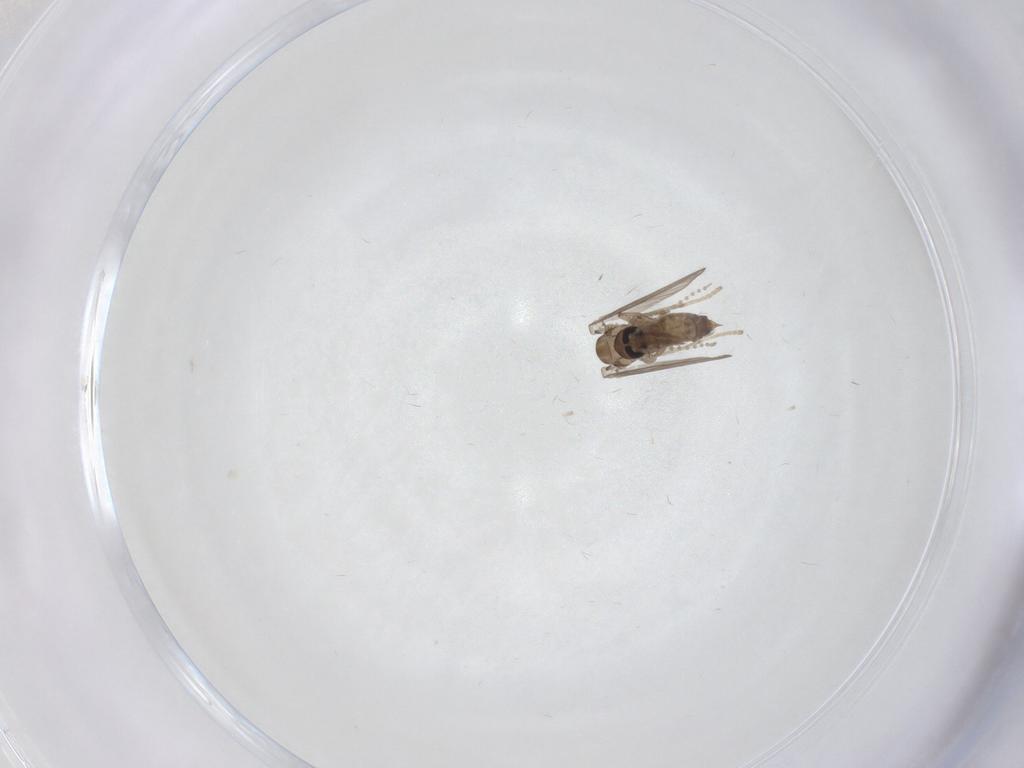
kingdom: Animalia
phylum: Arthropoda
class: Insecta
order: Diptera
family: Psychodidae
